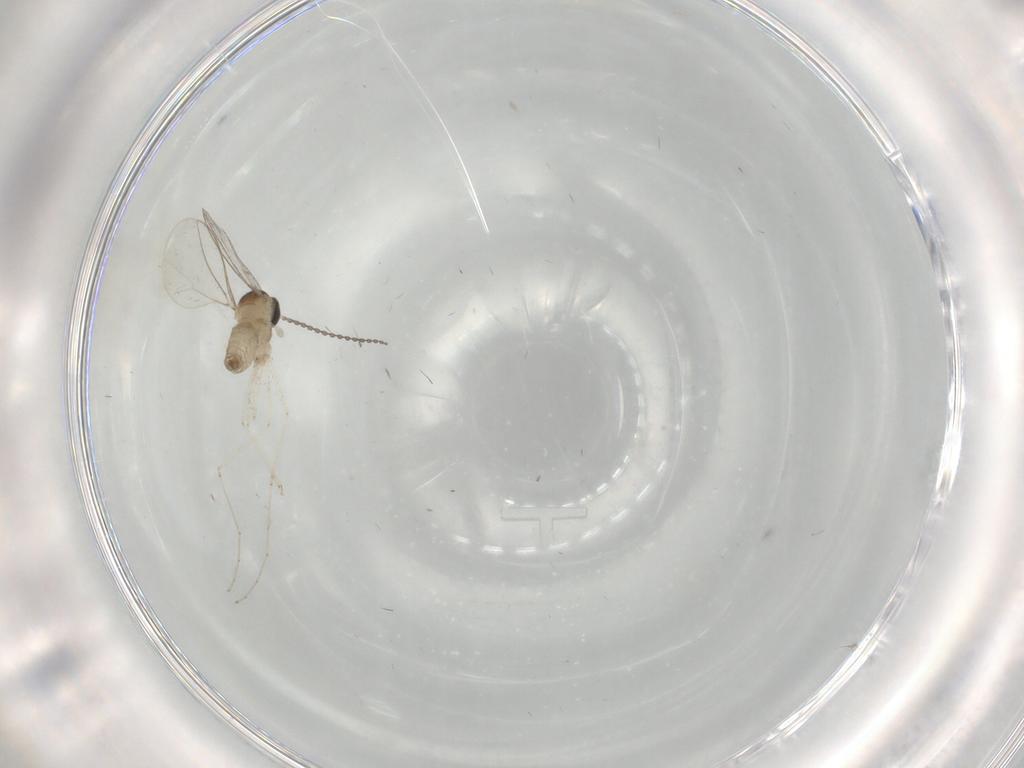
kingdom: Animalia
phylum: Arthropoda
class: Insecta
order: Diptera
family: Cecidomyiidae
